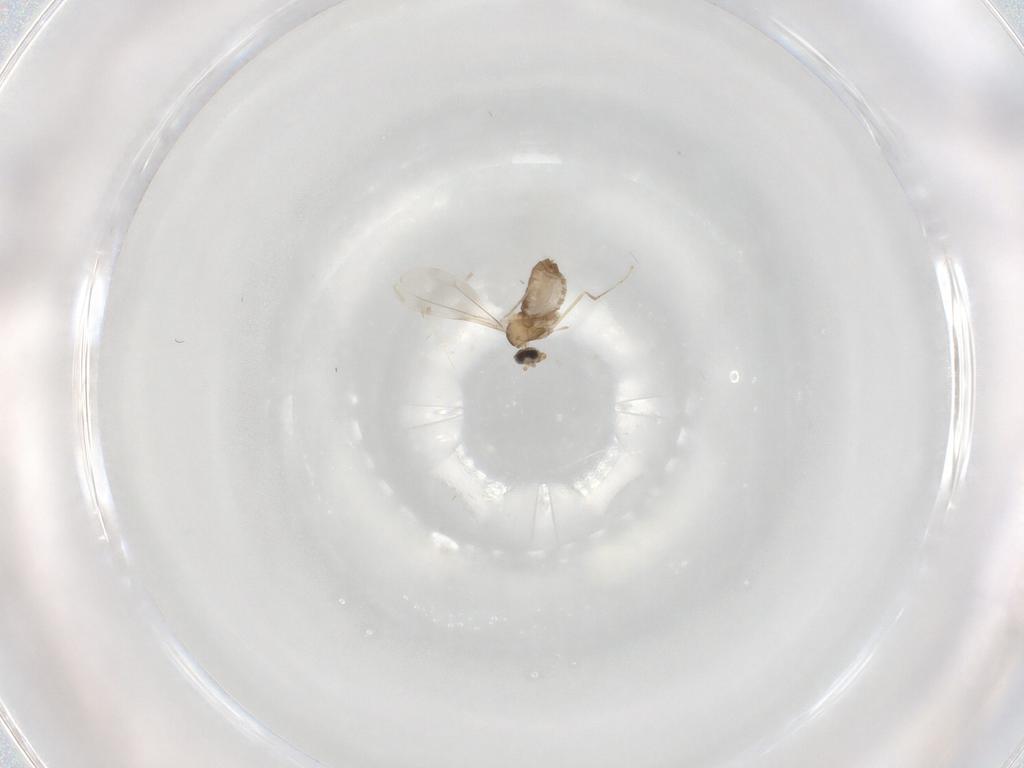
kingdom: Animalia
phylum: Arthropoda
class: Insecta
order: Diptera
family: Cecidomyiidae
